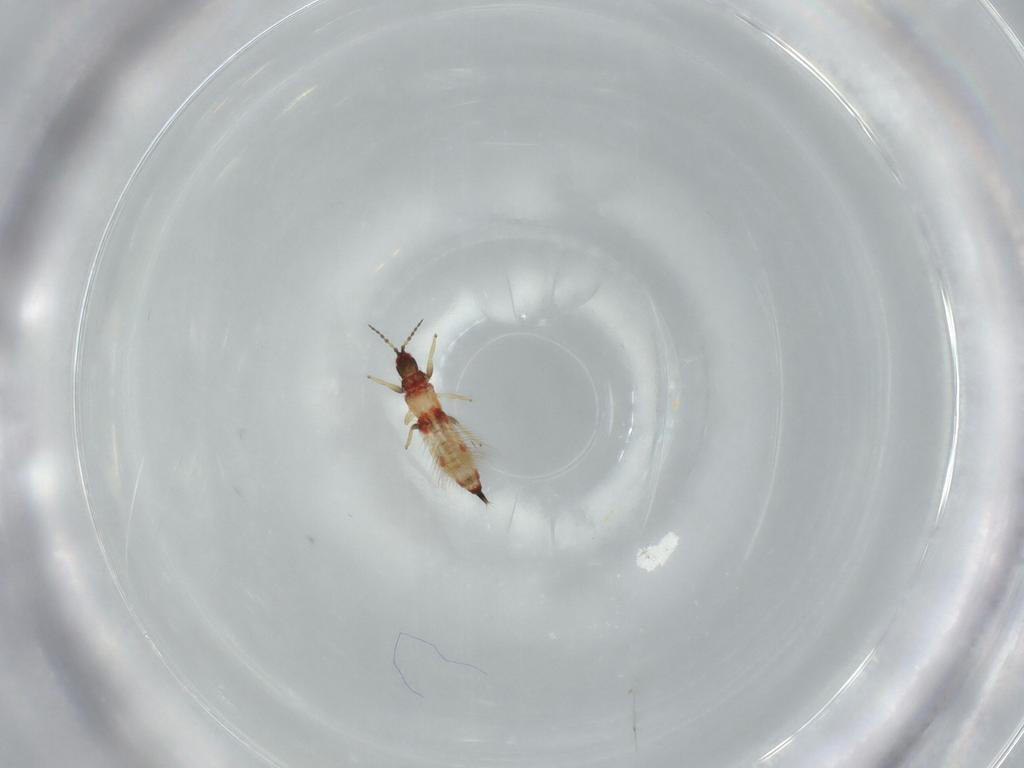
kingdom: Animalia
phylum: Arthropoda
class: Insecta
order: Thysanoptera
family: Phlaeothripidae
